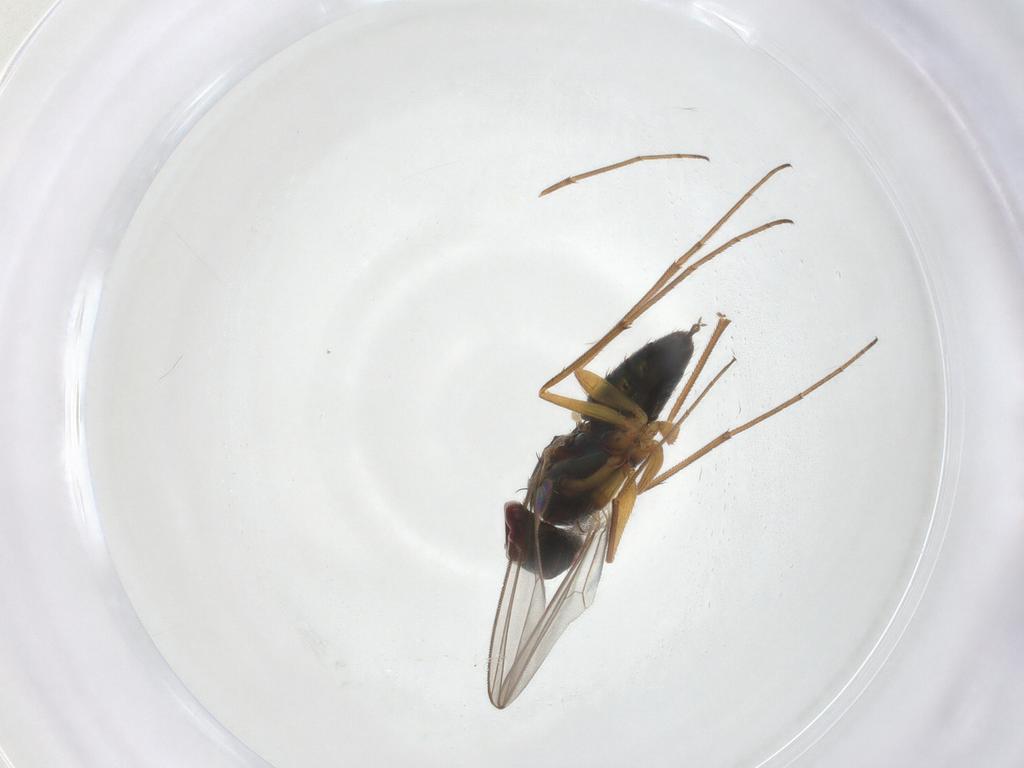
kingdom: Animalia
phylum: Arthropoda
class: Insecta
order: Diptera
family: Dolichopodidae
